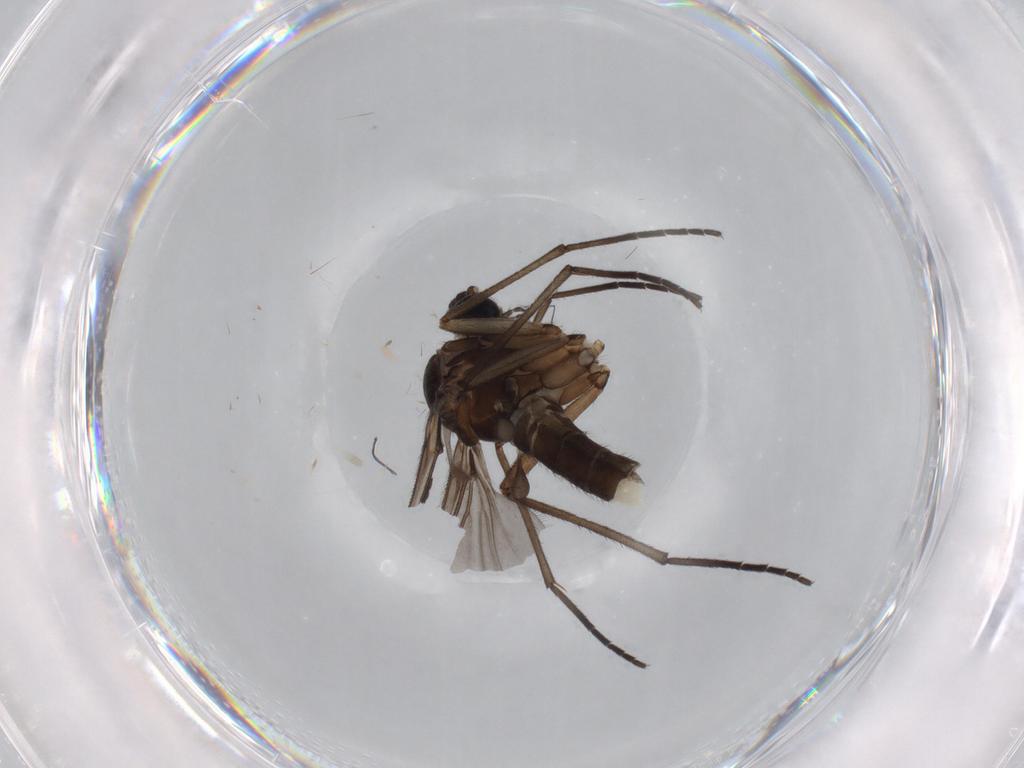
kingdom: Animalia
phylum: Arthropoda
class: Insecta
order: Diptera
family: Sciaridae
